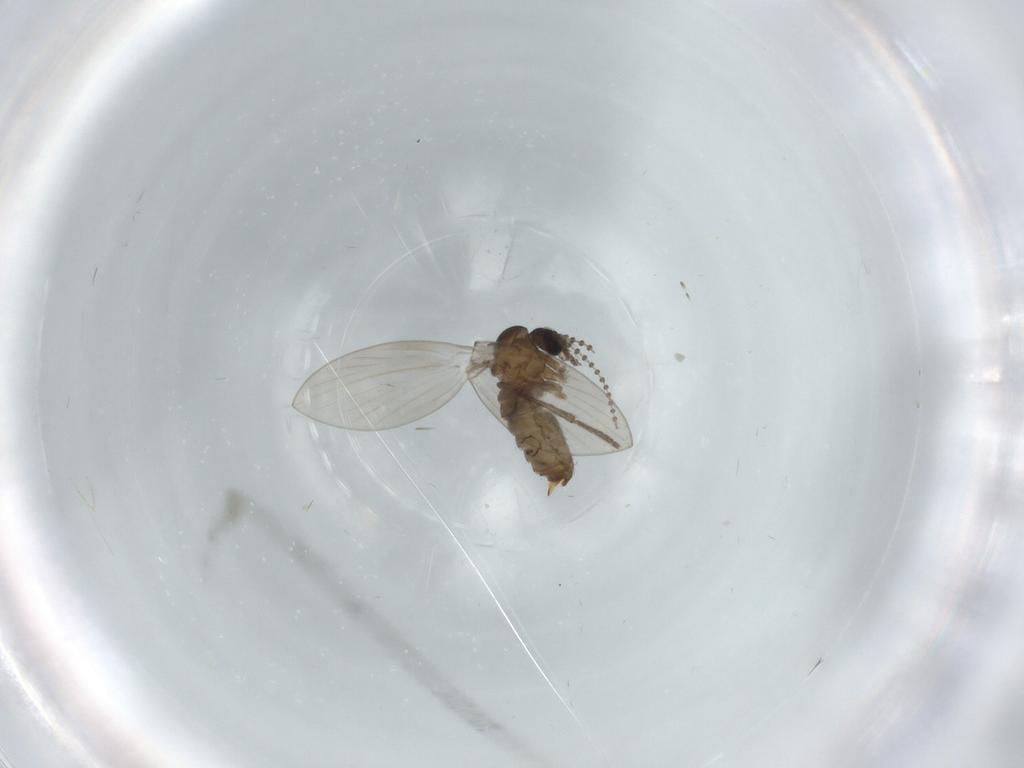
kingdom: Animalia
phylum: Arthropoda
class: Insecta
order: Diptera
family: Psychodidae
